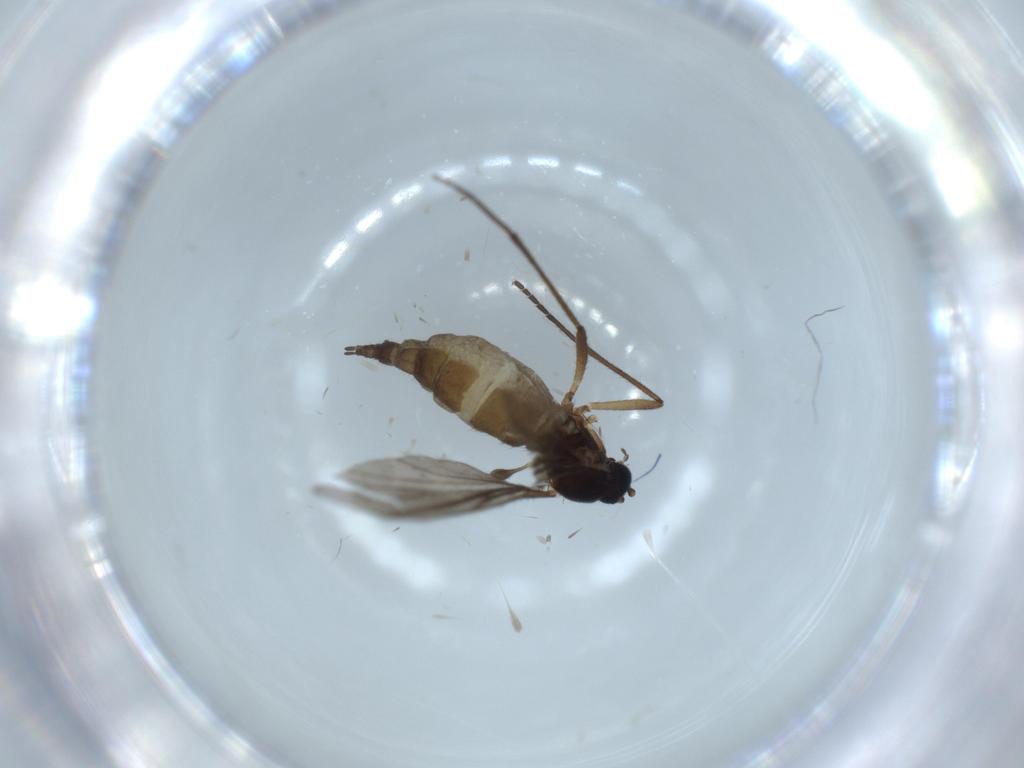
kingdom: Animalia
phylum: Arthropoda
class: Insecta
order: Diptera
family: Sciaridae
